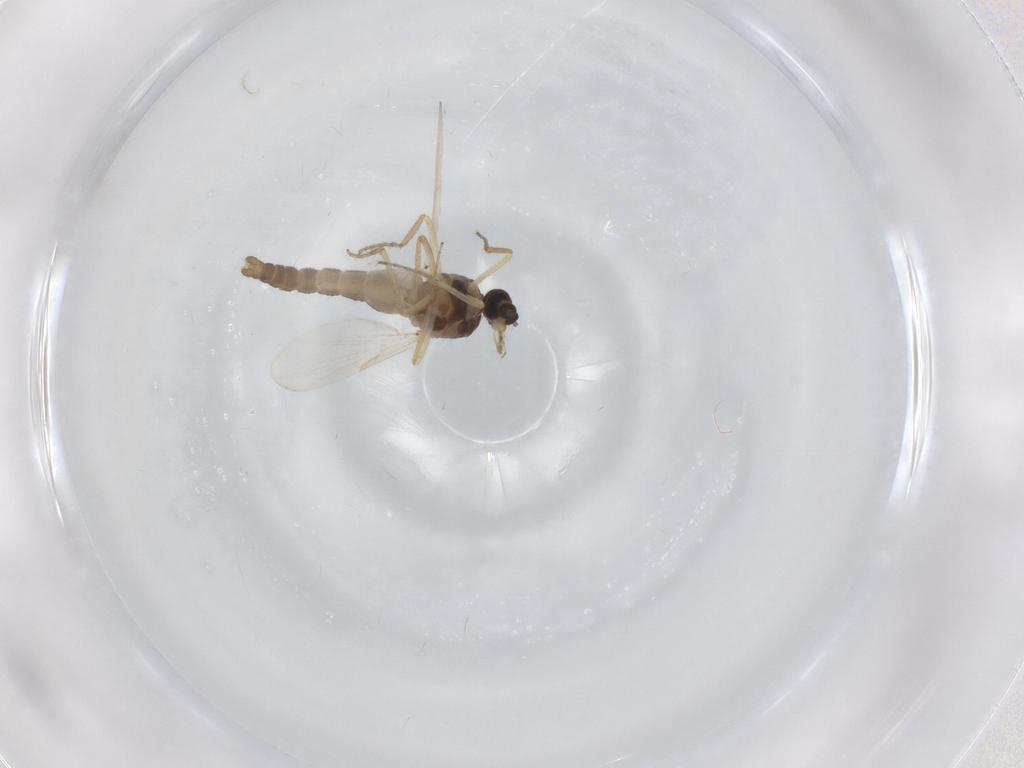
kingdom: Animalia
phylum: Arthropoda
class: Insecta
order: Diptera
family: Ceratopogonidae
